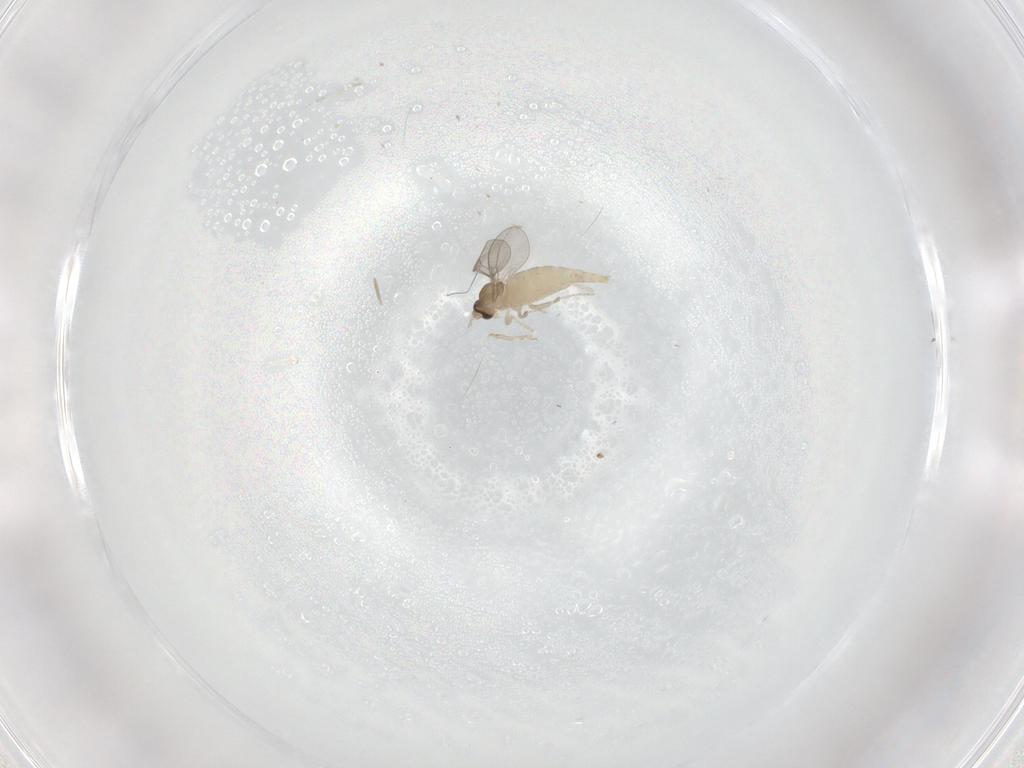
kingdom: Animalia
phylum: Arthropoda
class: Insecta
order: Diptera
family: Cecidomyiidae
